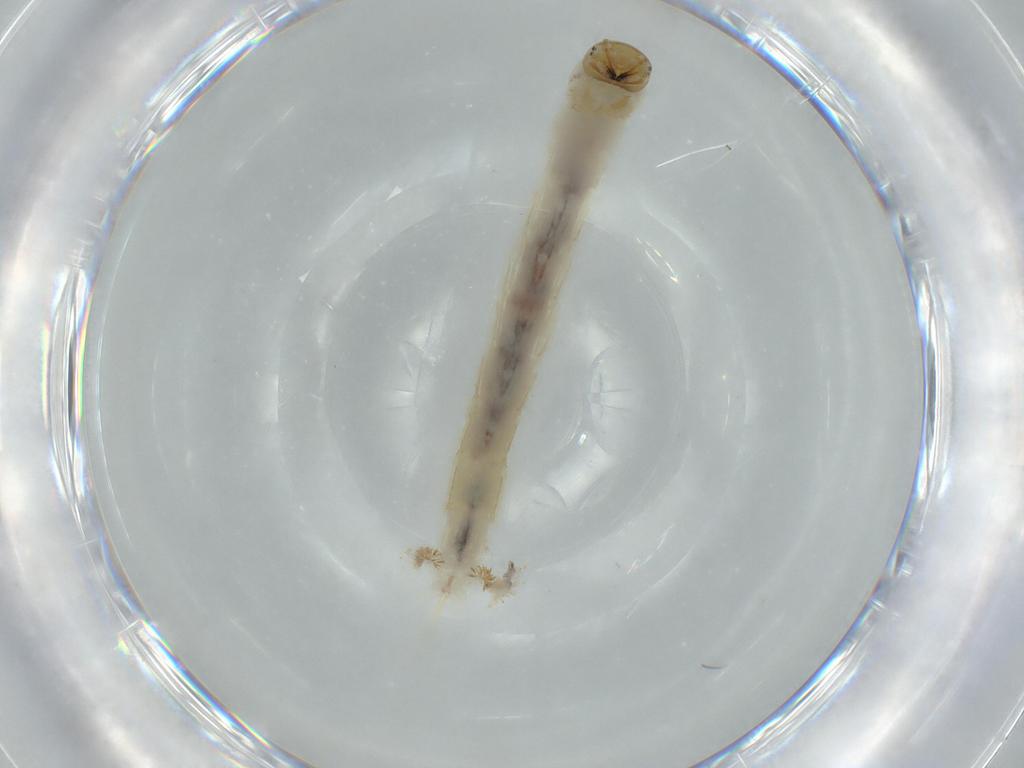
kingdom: Animalia
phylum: Arthropoda
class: Insecta
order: Diptera
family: Chironomidae
